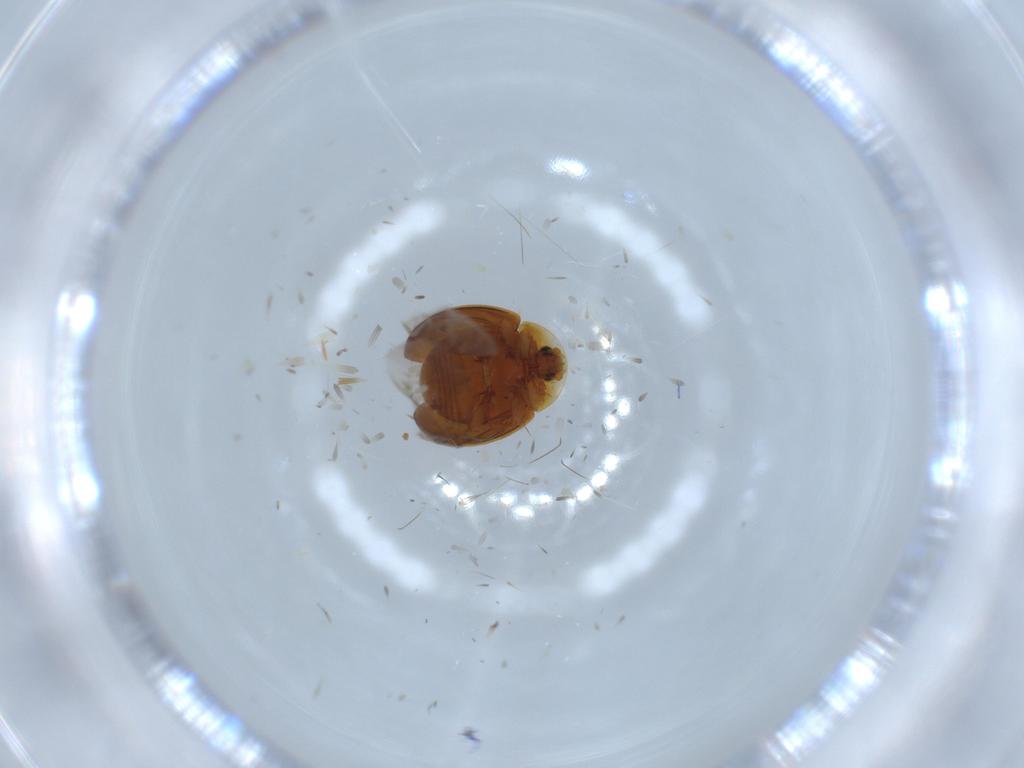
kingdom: Animalia
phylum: Arthropoda
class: Insecta
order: Coleoptera
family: Corylophidae
